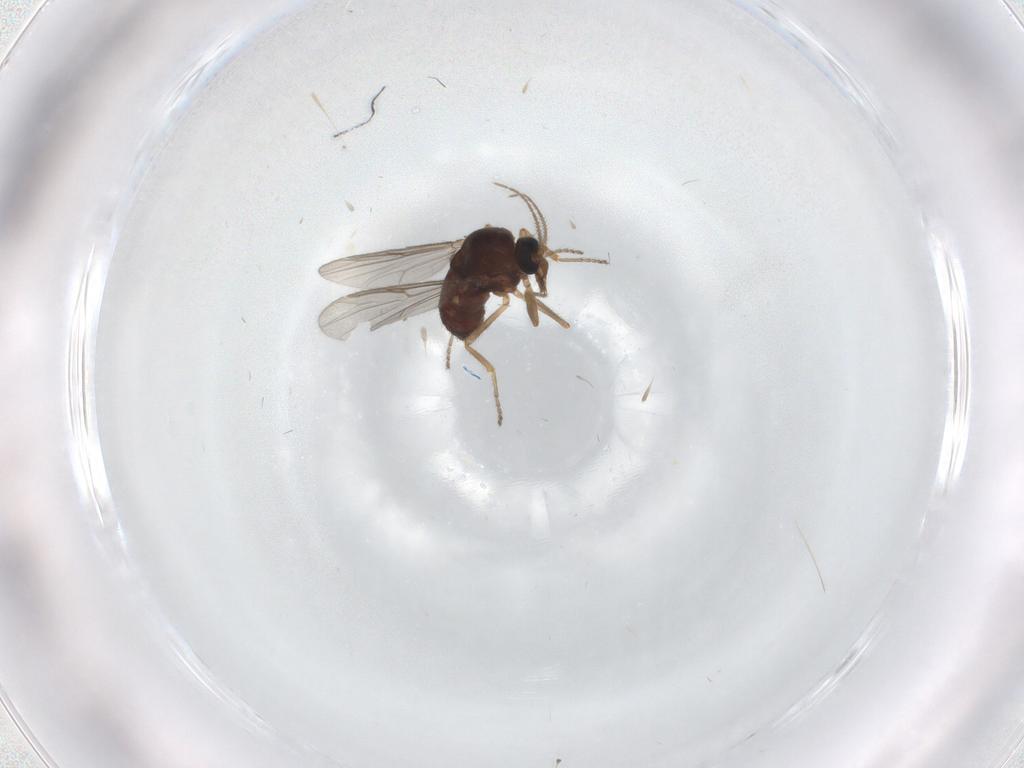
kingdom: Animalia
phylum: Arthropoda
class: Insecta
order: Diptera
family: Ceratopogonidae
